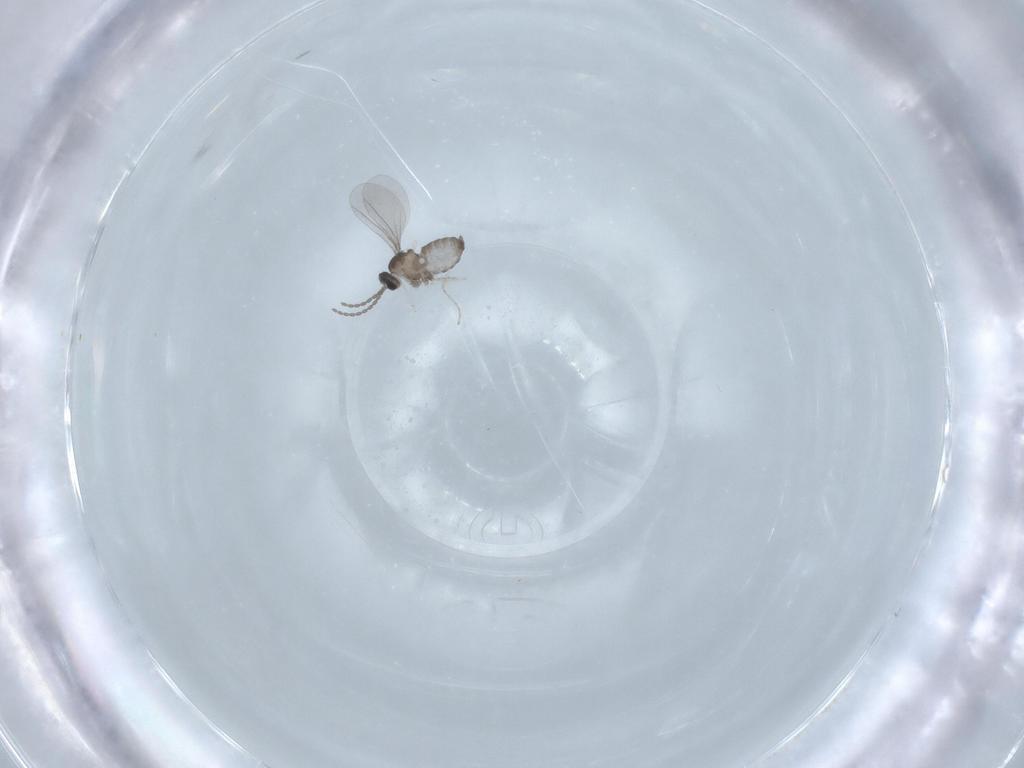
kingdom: Animalia
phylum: Arthropoda
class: Insecta
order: Diptera
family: Cecidomyiidae
